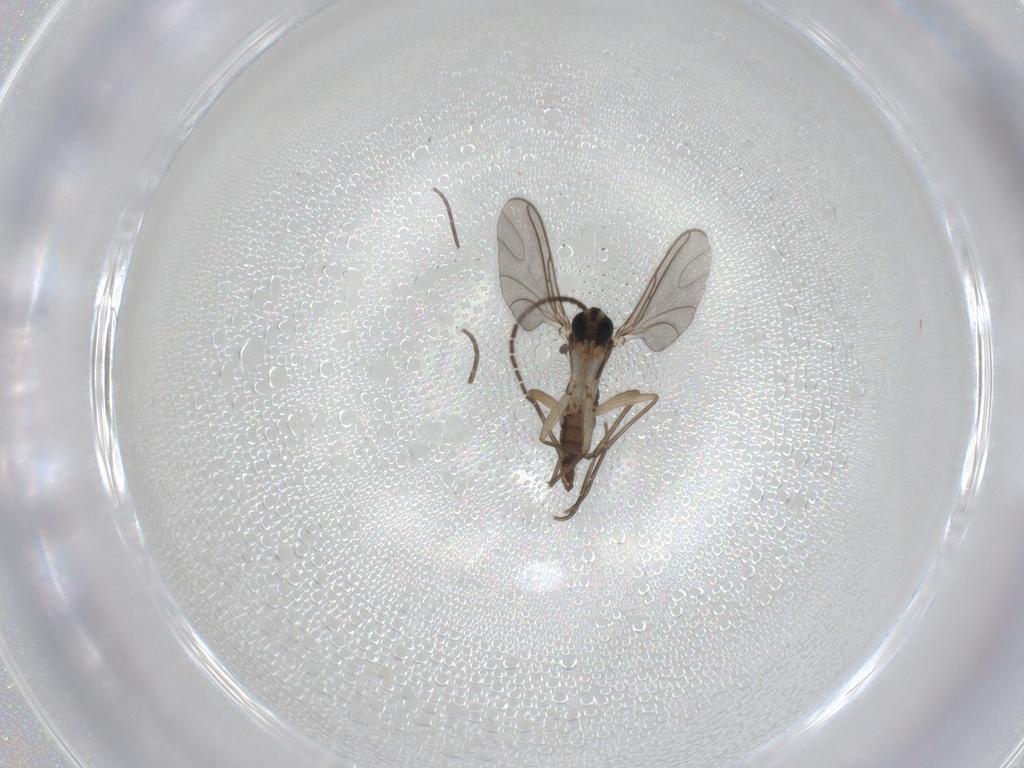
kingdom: Animalia
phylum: Arthropoda
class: Insecta
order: Diptera
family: Sciaridae
